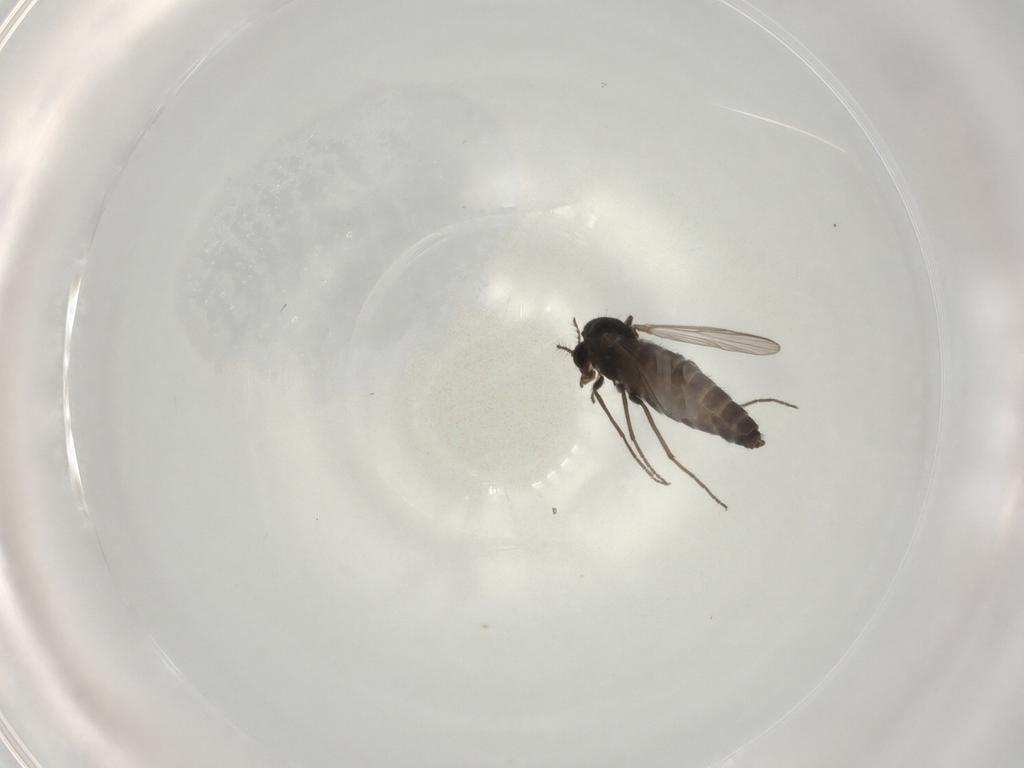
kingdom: Animalia
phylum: Arthropoda
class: Insecta
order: Diptera
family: Chironomidae
